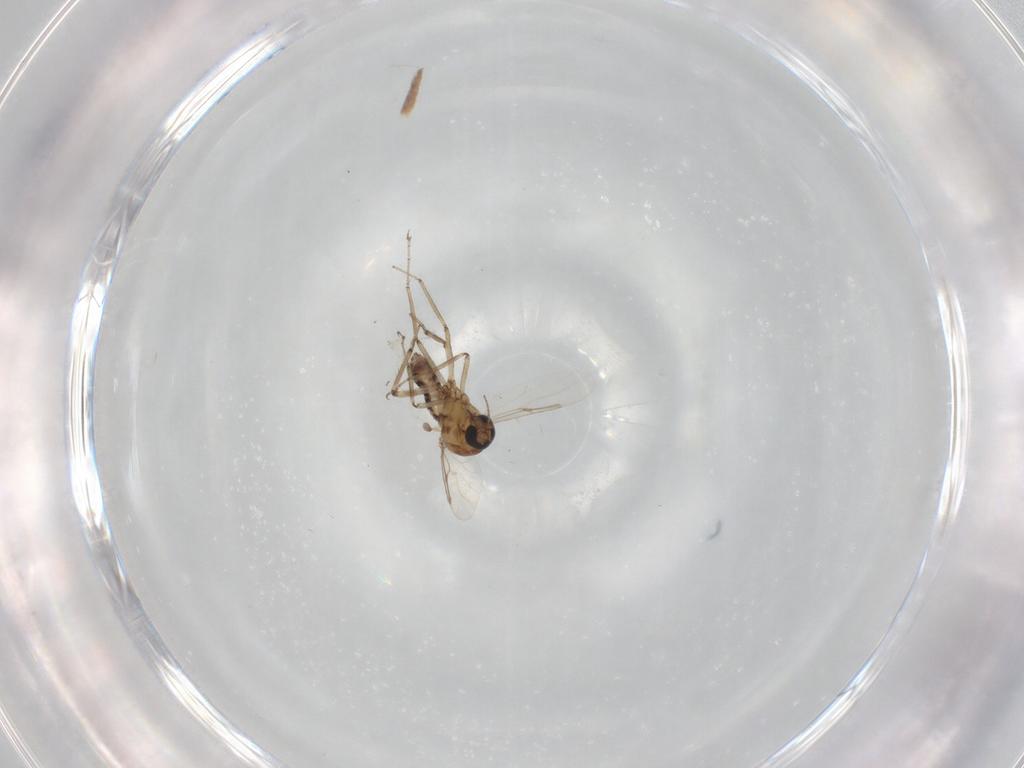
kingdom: Animalia
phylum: Arthropoda
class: Insecta
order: Diptera
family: Ceratopogonidae
